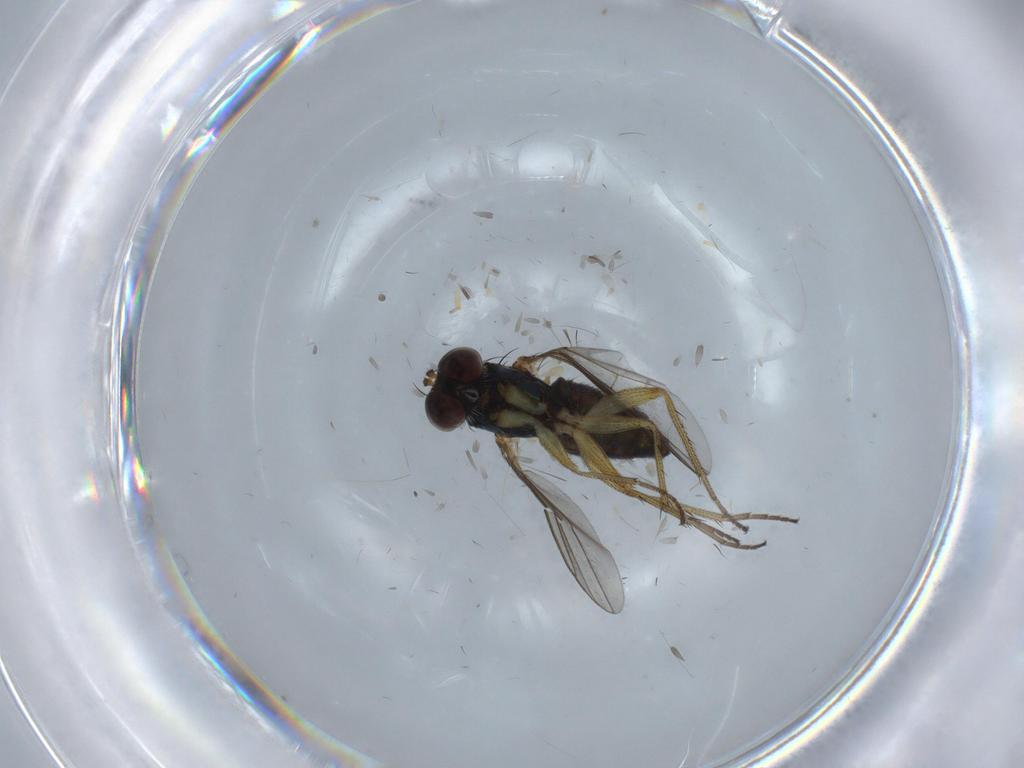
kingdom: Animalia
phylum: Arthropoda
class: Insecta
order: Diptera
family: Dolichopodidae
